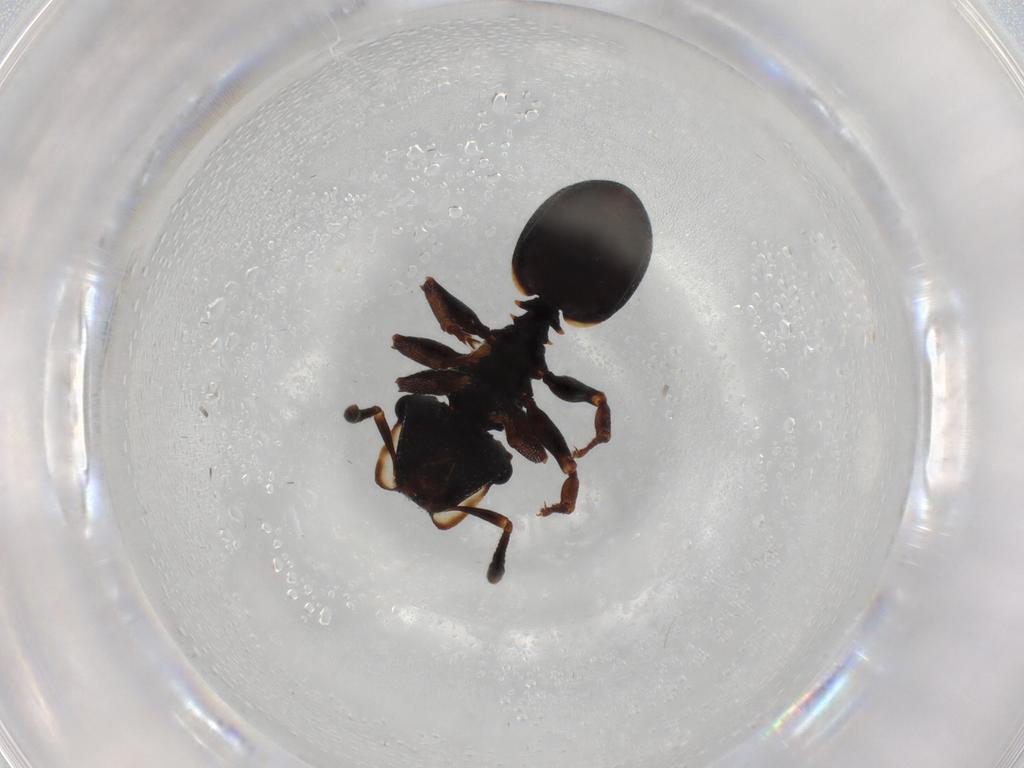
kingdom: Animalia
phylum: Arthropoda
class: Insecta
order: Hymenoptera
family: Formicidae
